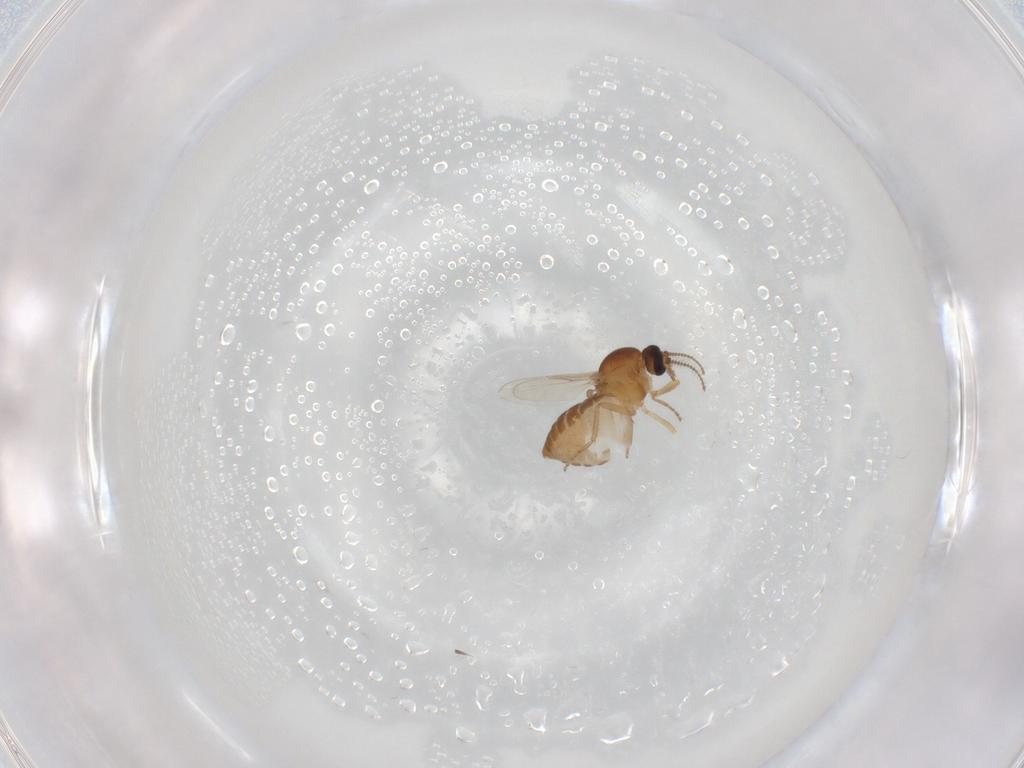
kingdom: Animalia
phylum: Arthropoda
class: Insecta
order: Diptera
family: Ceratopogonidae
